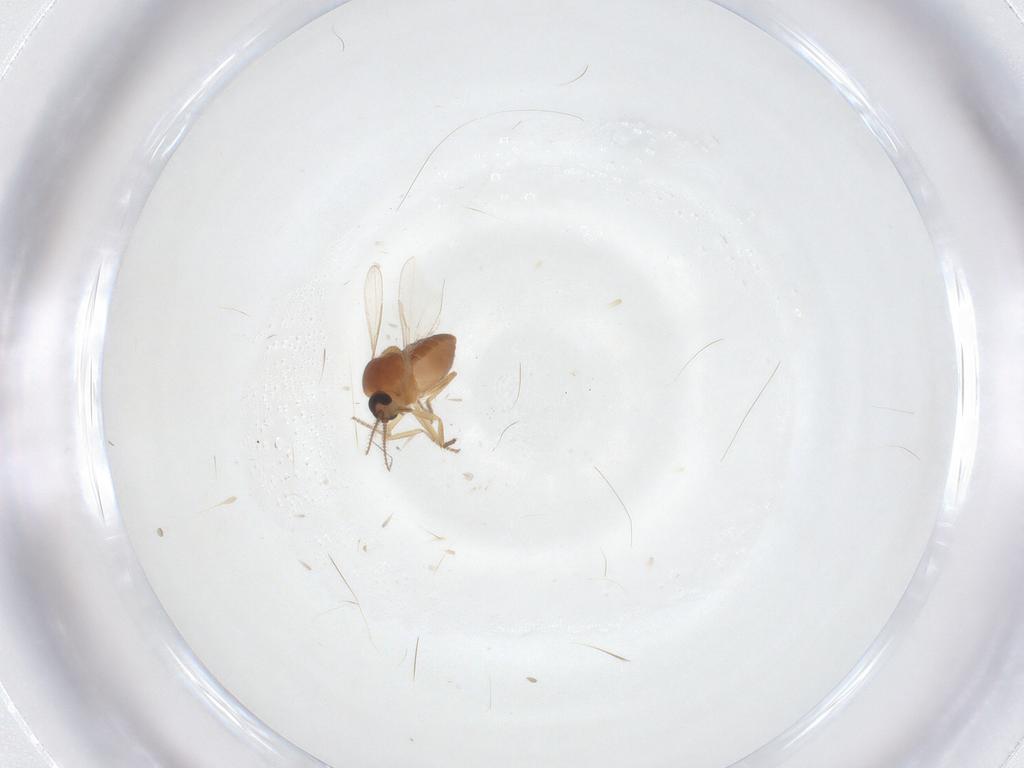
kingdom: Animalia
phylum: Arthropoda
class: Insecta
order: Diptera
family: Ceratopogonidae
